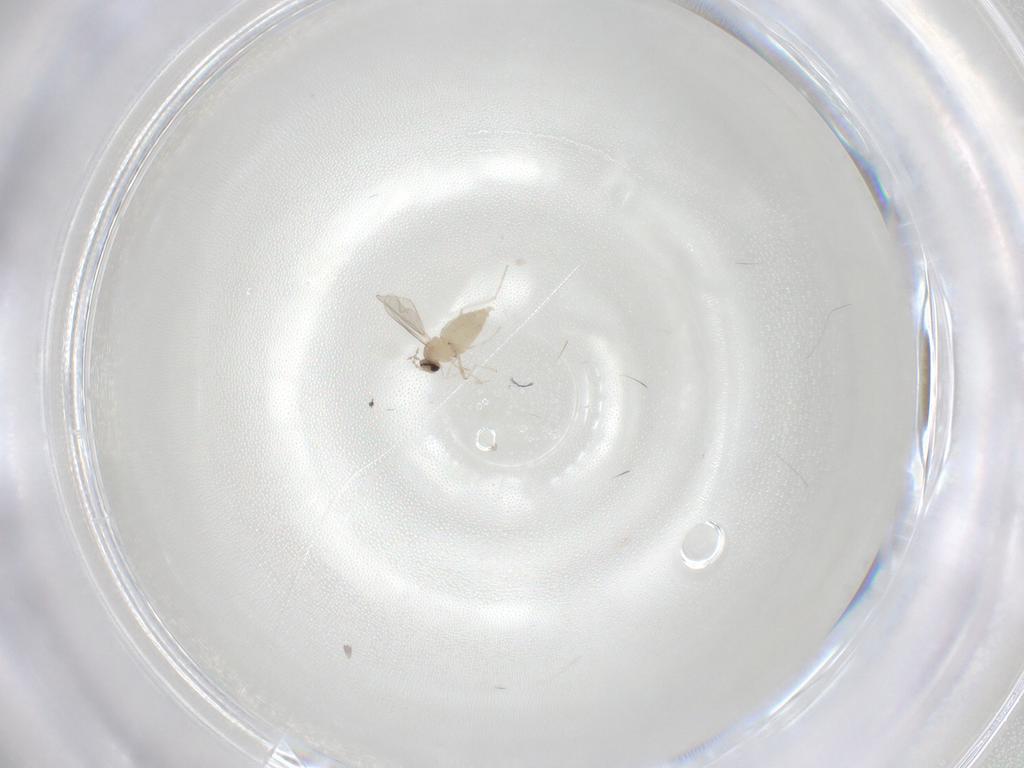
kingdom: Animalia
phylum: Arthropoda
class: Insecta
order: Diptera
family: Cecidomyiidae
